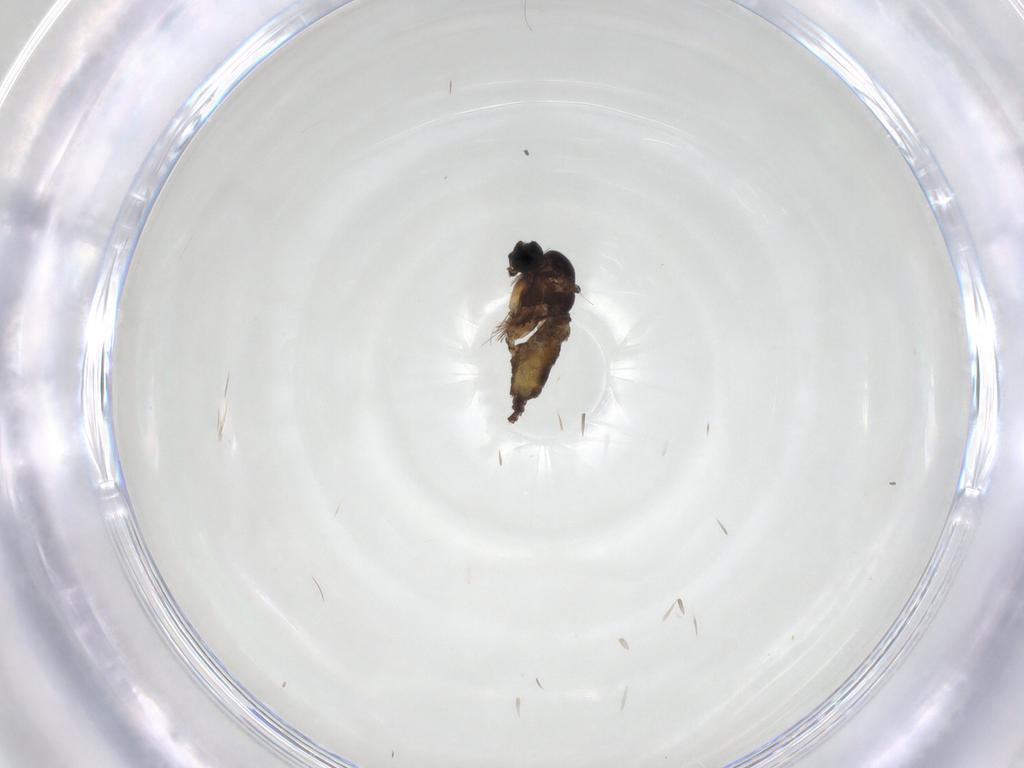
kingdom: Animalia
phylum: Arthropoda
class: Insecta
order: Diptera
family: Sciaridae
